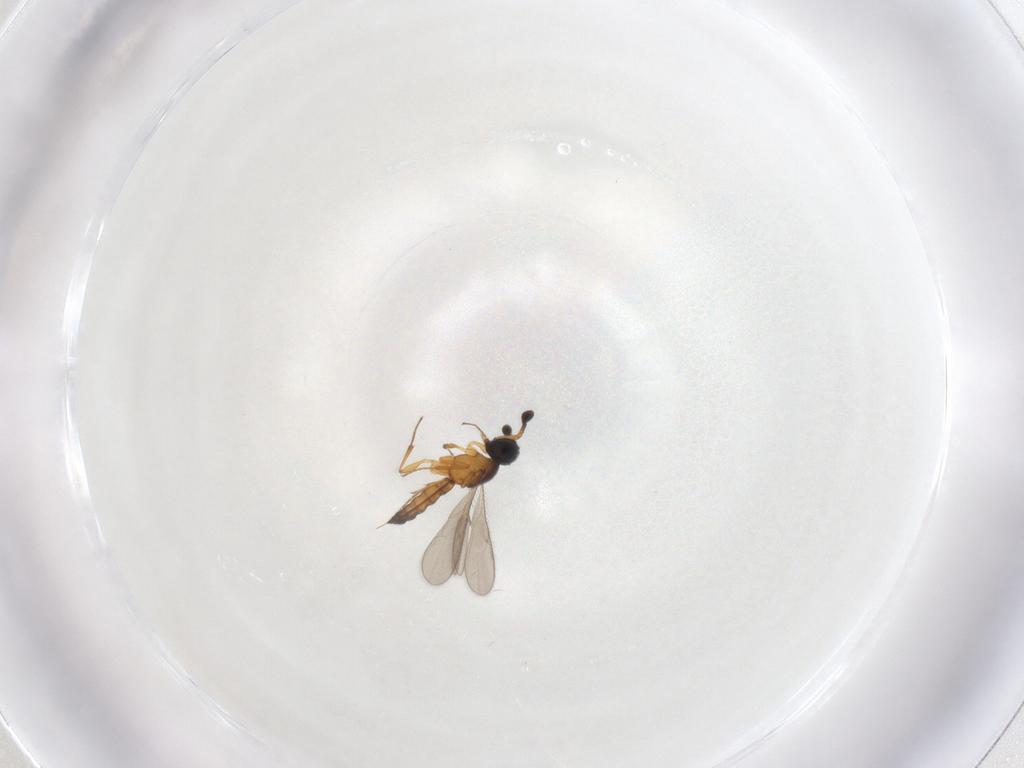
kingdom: Animalia
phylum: Arthropoda
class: Insecta
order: Hymenoptera
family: Scelionidae
